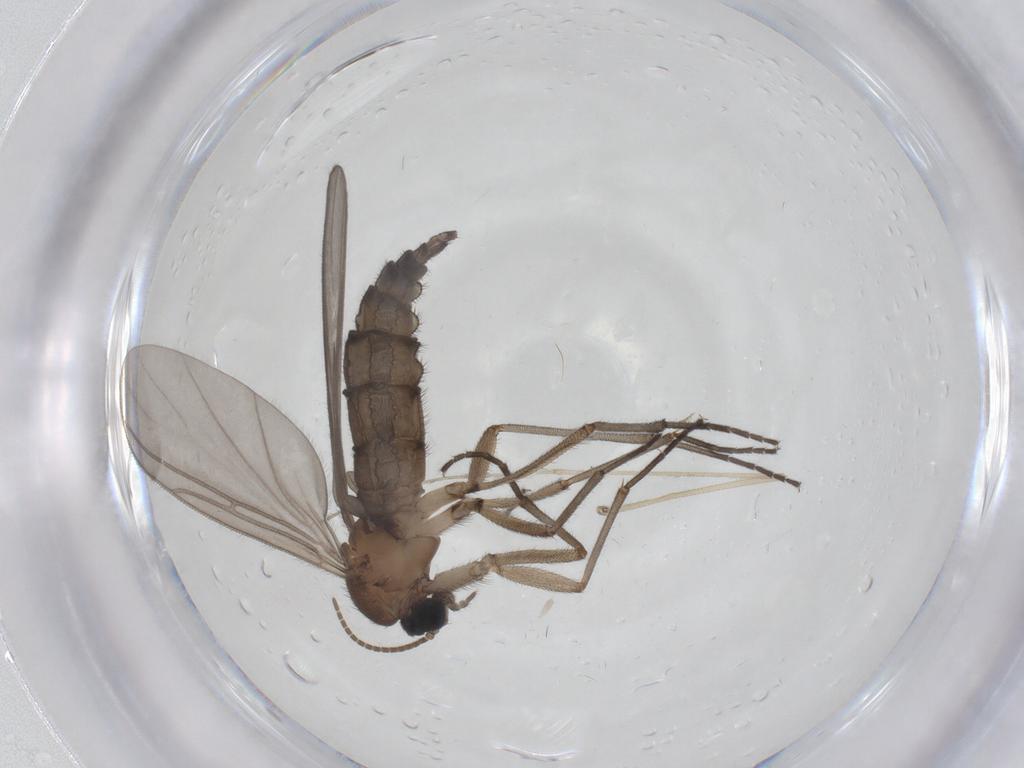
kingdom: Animalia
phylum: Arthropoda
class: Insecta
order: Diptera
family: Limoniidae
